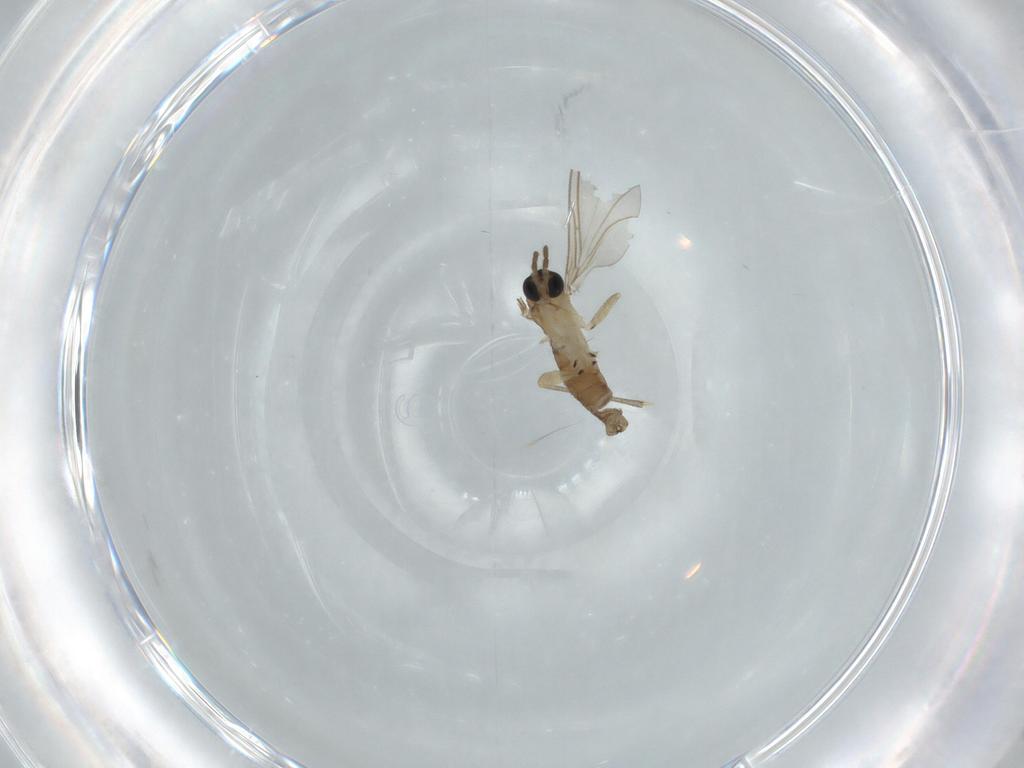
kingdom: Animalia
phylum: Arthropoda
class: Insecta
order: Diptera
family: Sciaridae
